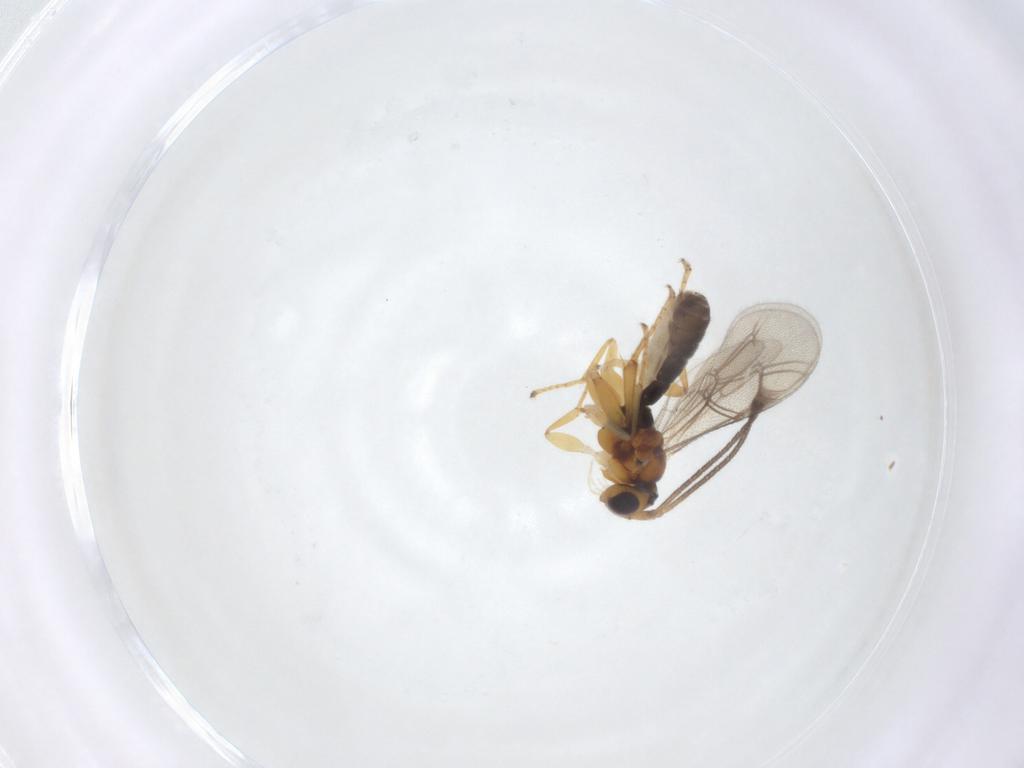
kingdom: Animalia
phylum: Arthropoda
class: Insecta
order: Hymenoptera
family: Ichneumonidae
